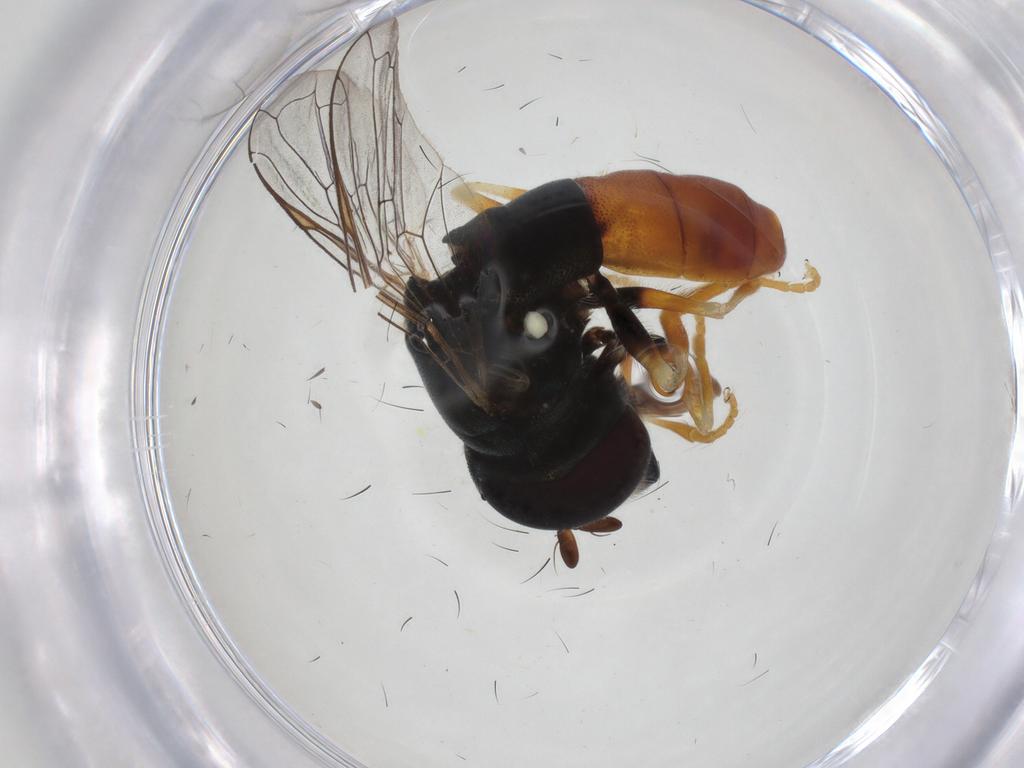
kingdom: Animalia
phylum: Arthropoda
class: Insecta
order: Diptera
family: Syrphidae
